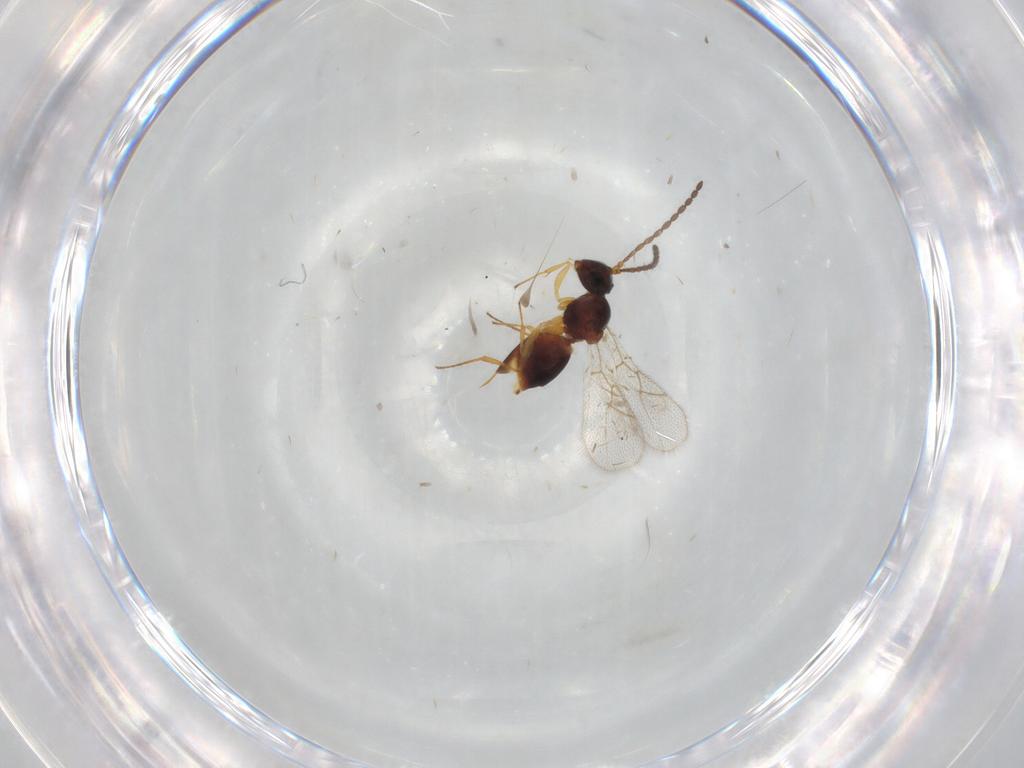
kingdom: Animalia
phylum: Arthropoda
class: Insecta
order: Hymenoptera
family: Figitidae
